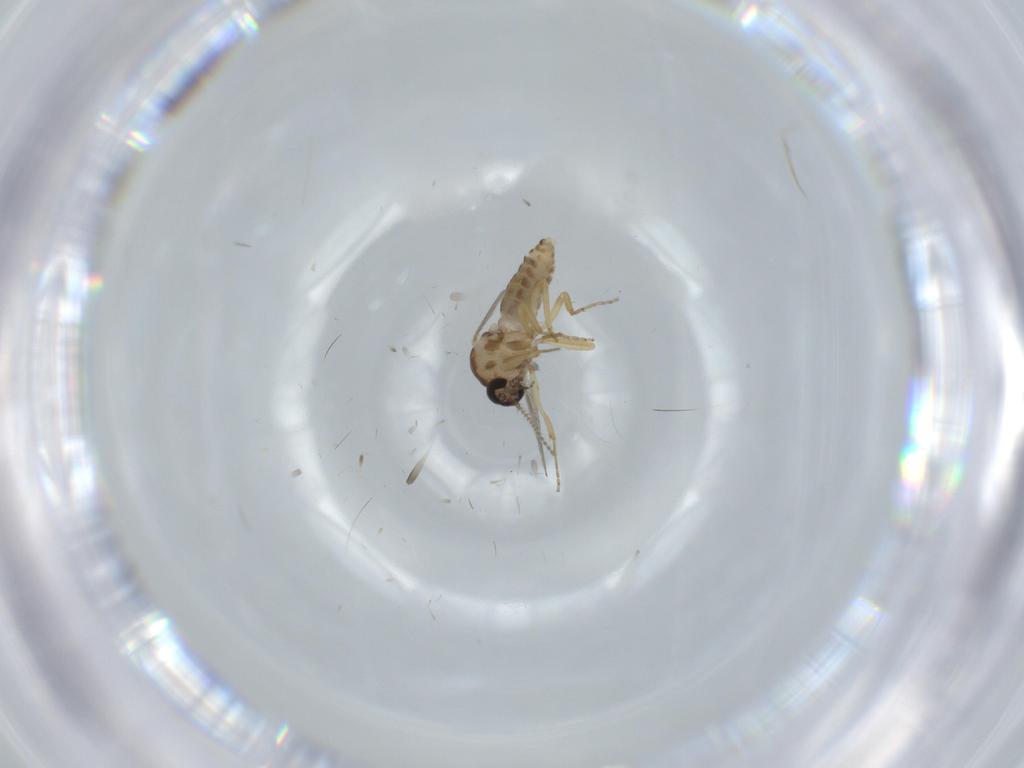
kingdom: Animalia
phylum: Arthropoda
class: Insecta
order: Diptera
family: Ceratopogonidae
